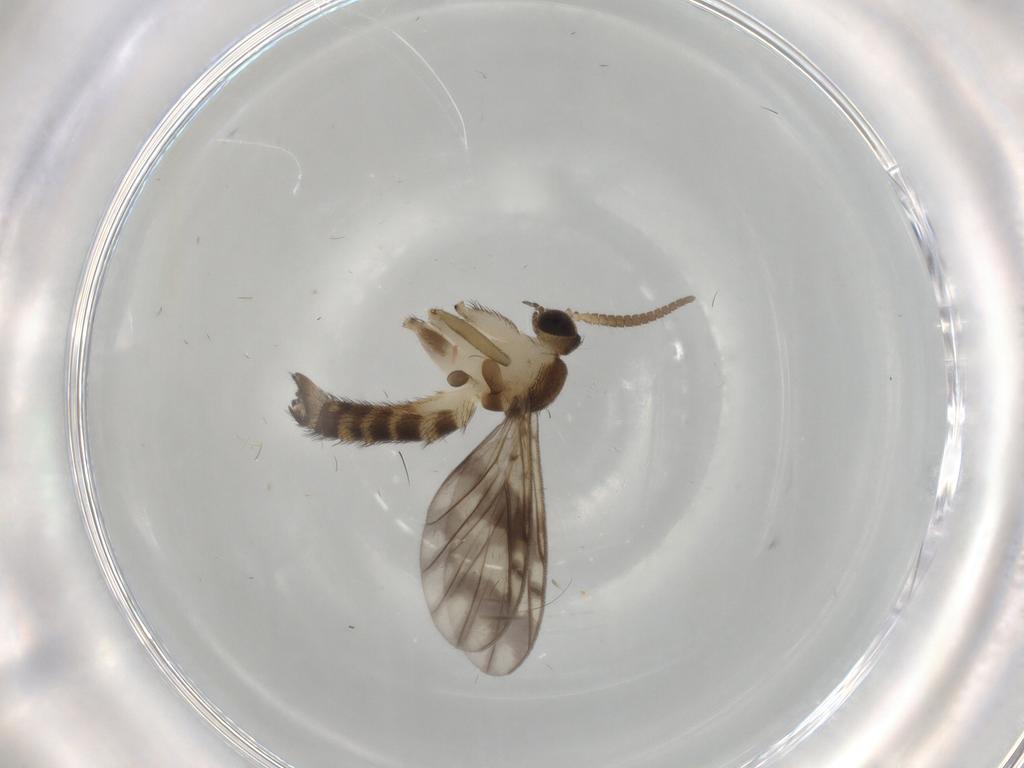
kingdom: Animalia
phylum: Arthropoda
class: Insecta
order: Diptera
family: Keroplatidae
